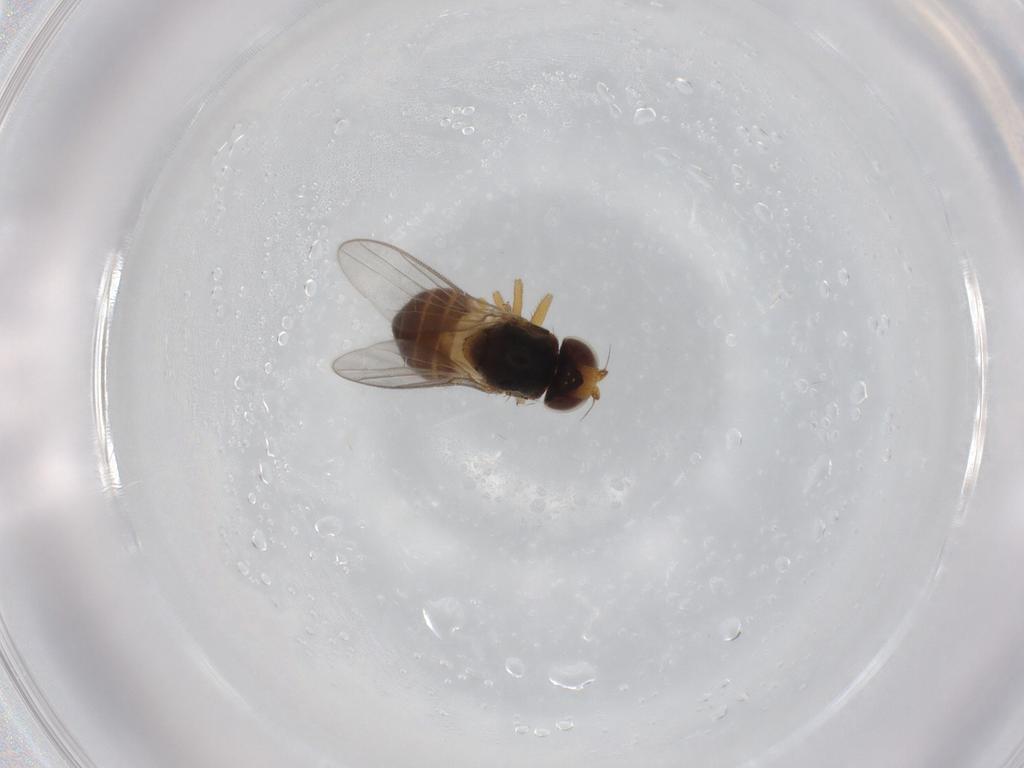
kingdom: Animalia
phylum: Arthropoda
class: Insecta
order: Diptera
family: Chloropidae
